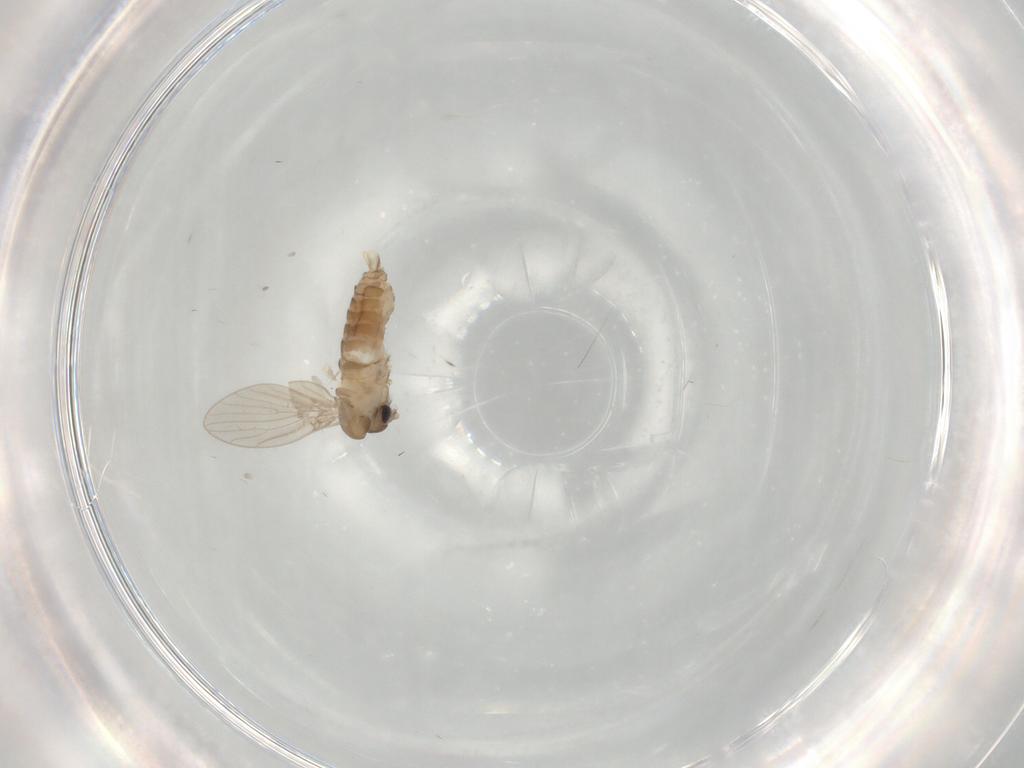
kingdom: Animalia
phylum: Arthropoda
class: Insecta
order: Diptera
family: Psychodidae
